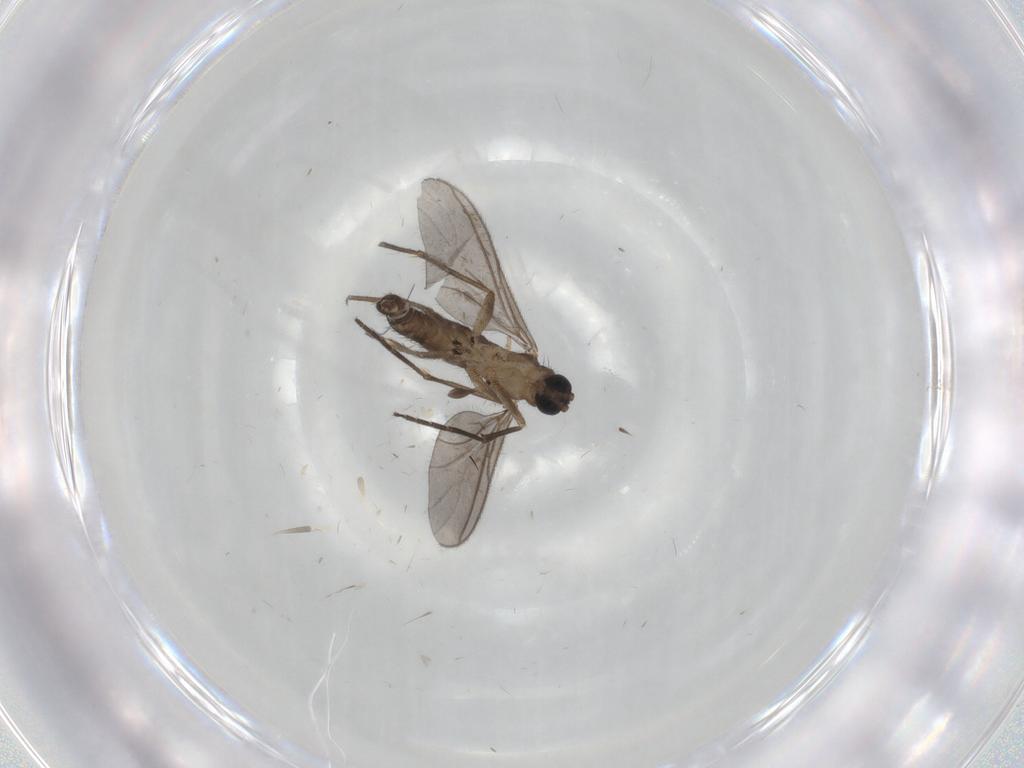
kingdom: Animalia
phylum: Arthropoda
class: Insecta
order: Diptera
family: Sciaridae
